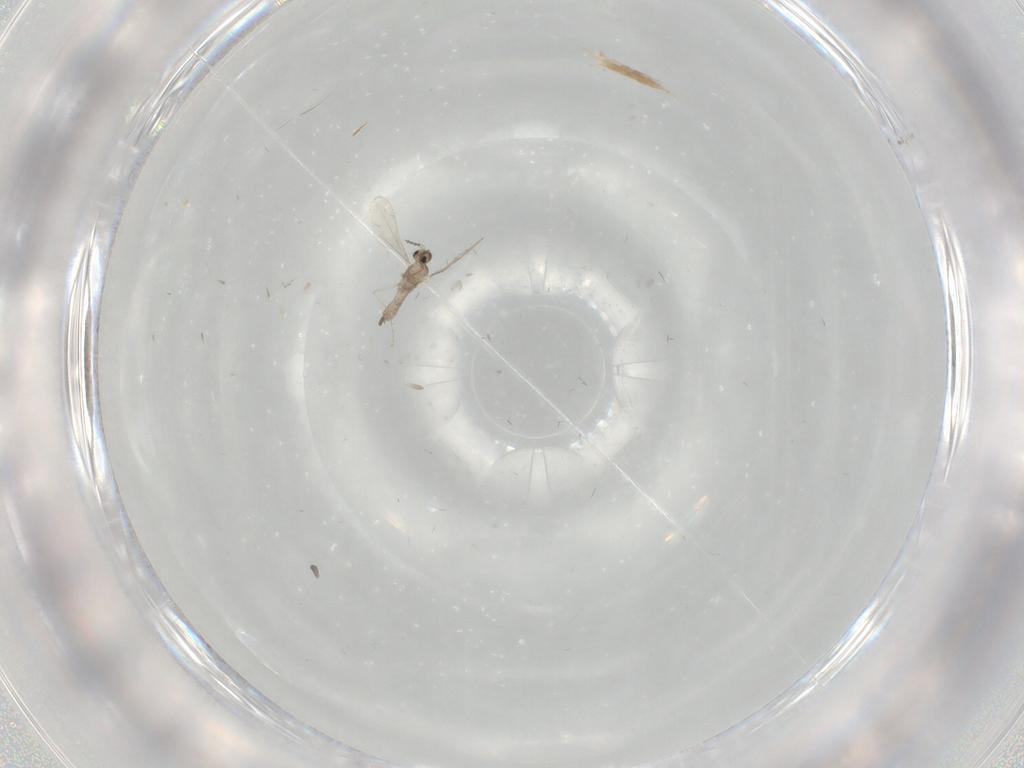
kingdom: Animalia
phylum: Arthropoda
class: Insecta
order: Diptera
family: Cecidomyiidae
